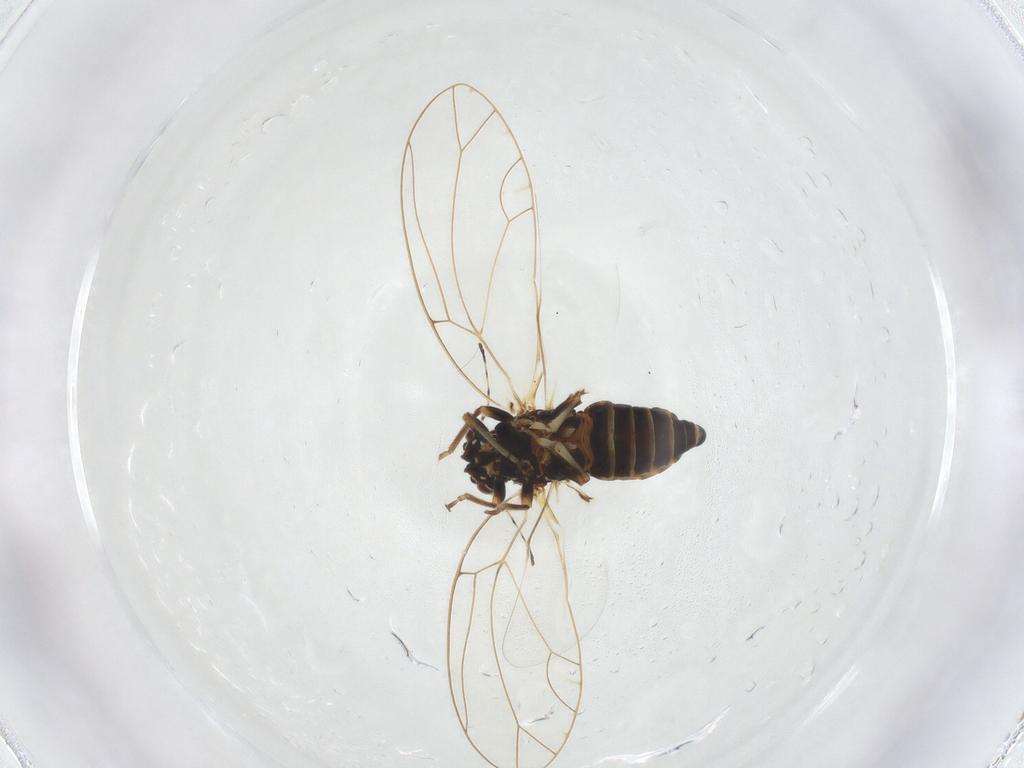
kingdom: Animalia
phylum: Arthropoda
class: Insecta
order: Hemiptera
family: Triozidae
